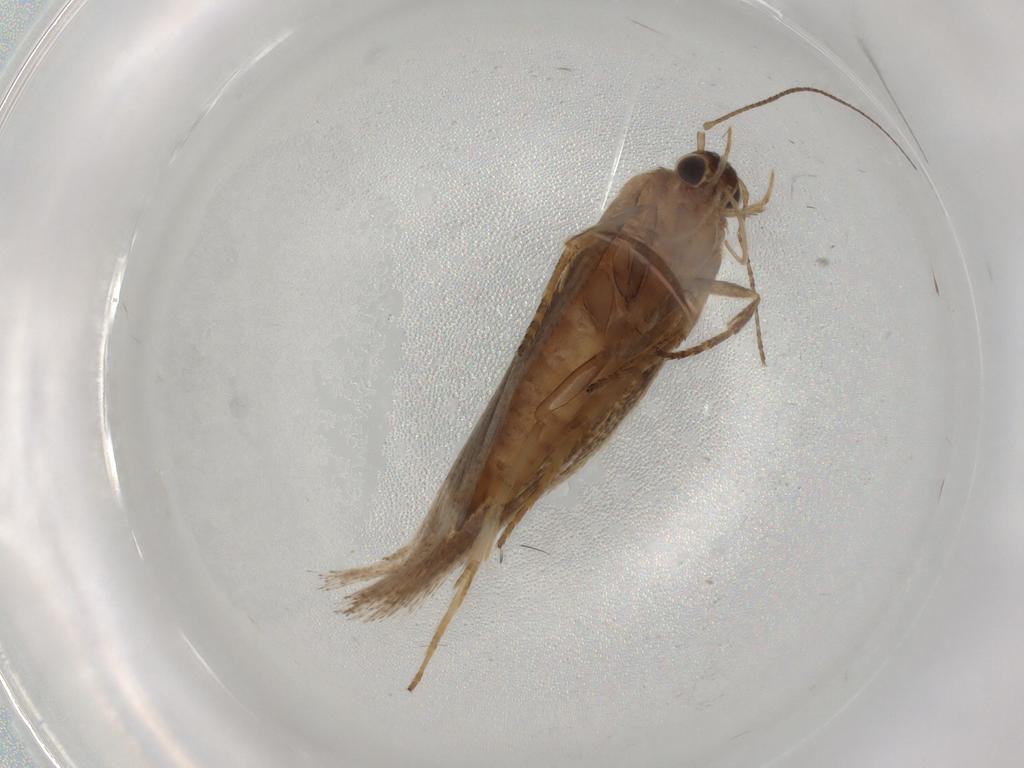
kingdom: Animalia
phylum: Arthropoda
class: Insecta
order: Lepidoptera
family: Oecophoridae
